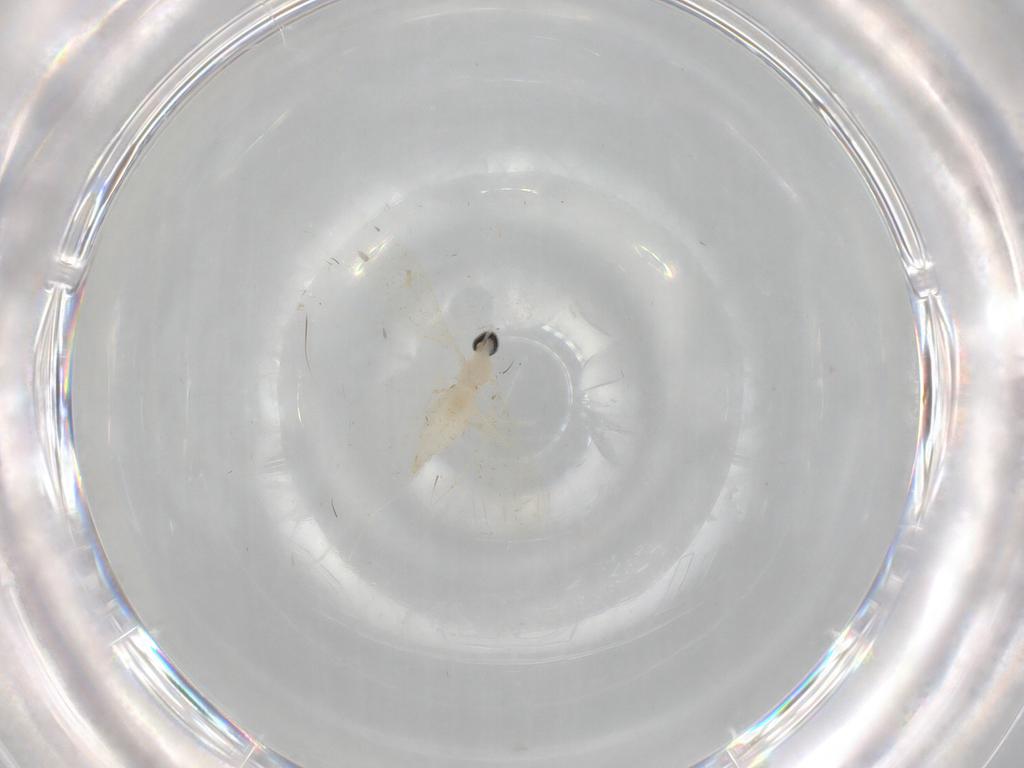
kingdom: Animalia
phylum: Arthropoda
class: Insecta
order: Diptera
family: Cecidomyiidae
